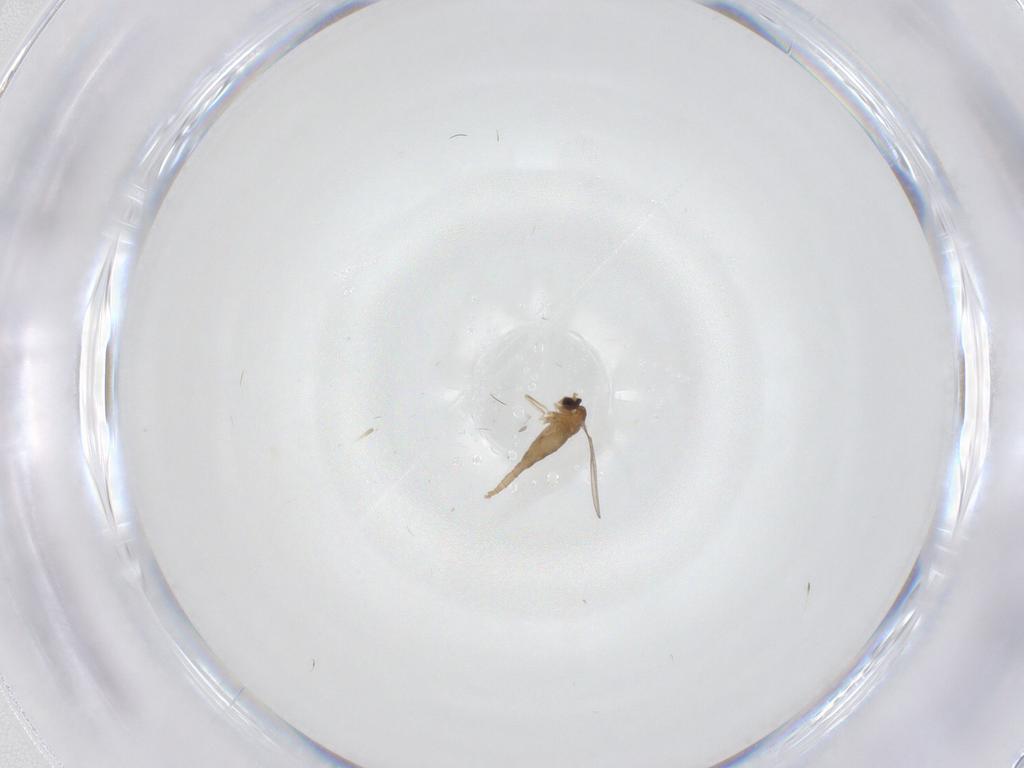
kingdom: Animalia
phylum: Arthropoda
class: Insecta
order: Diptera
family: Cecidomyiidae
